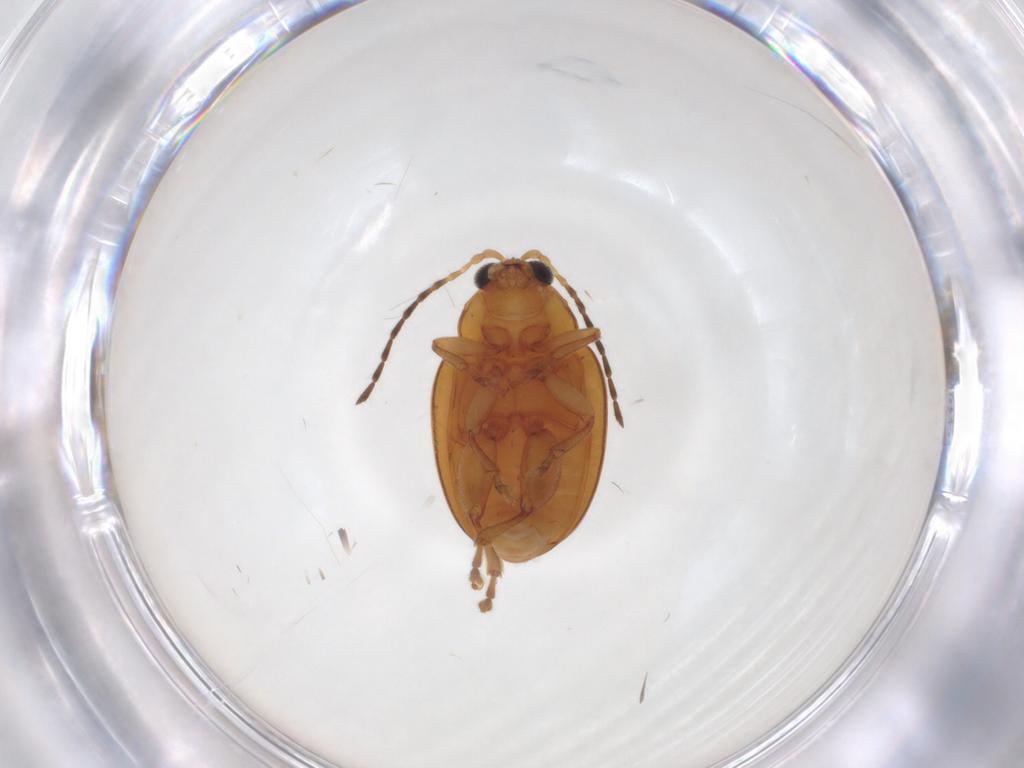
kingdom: Animalia
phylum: Arthropoda
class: Insecta
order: Coleoptera
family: Chrysomelidae
